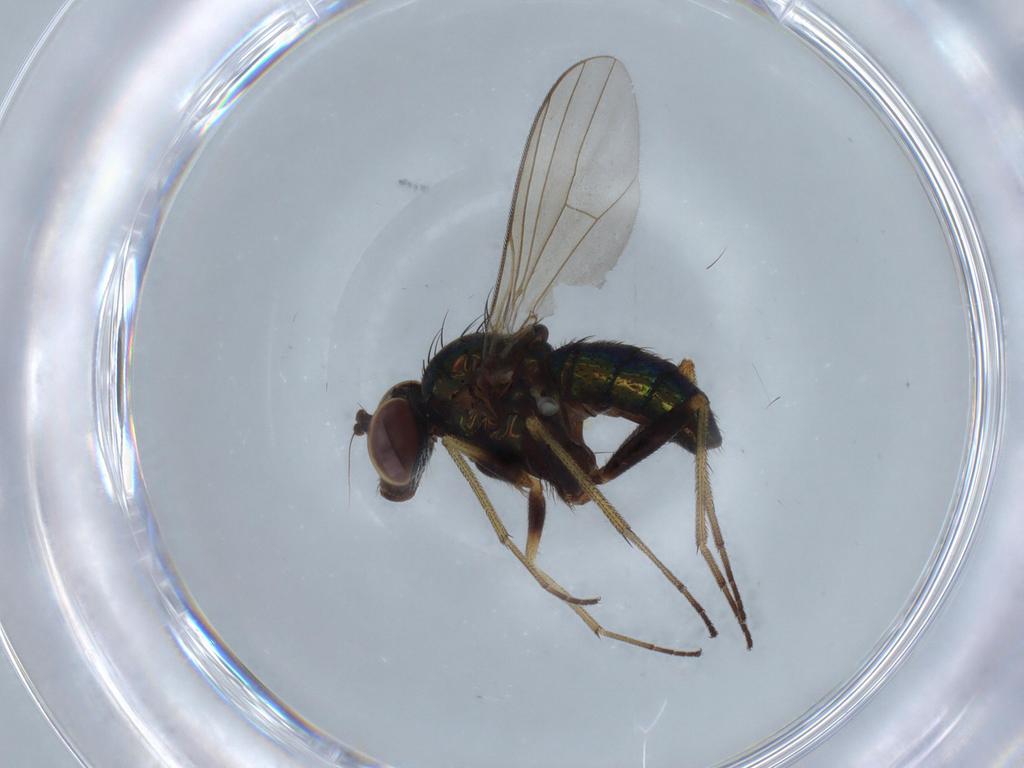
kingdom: Animalia
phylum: Arthropoda
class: Insecta
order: Diptera
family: Dolichopodidae
